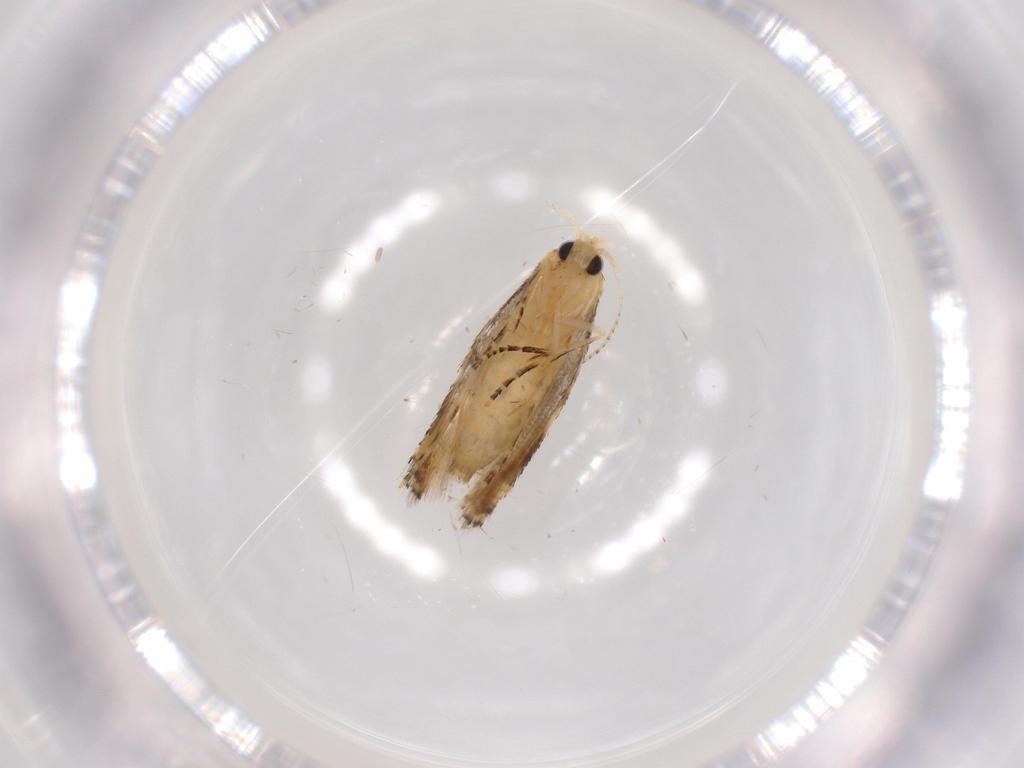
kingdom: Animalia
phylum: Arthropoda
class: Insecta
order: Lepidoptera
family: Bucculatricidae
